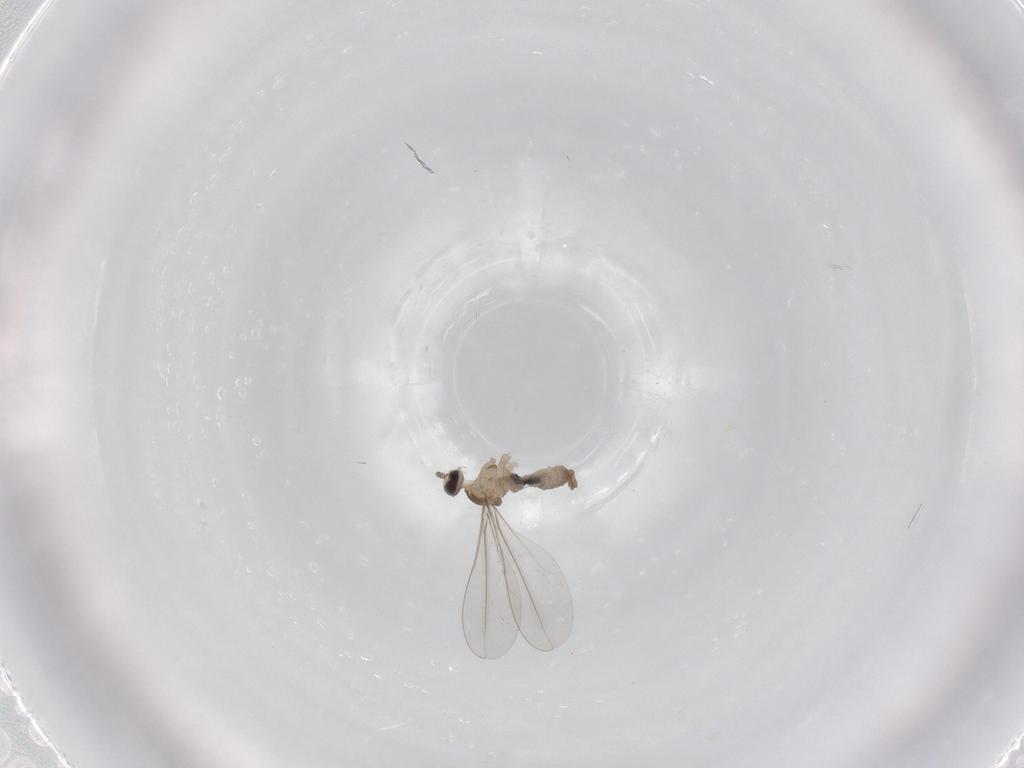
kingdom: Animalia
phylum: Arthropoda
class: Insecta
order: Diptera
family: Cecidomyiidae
